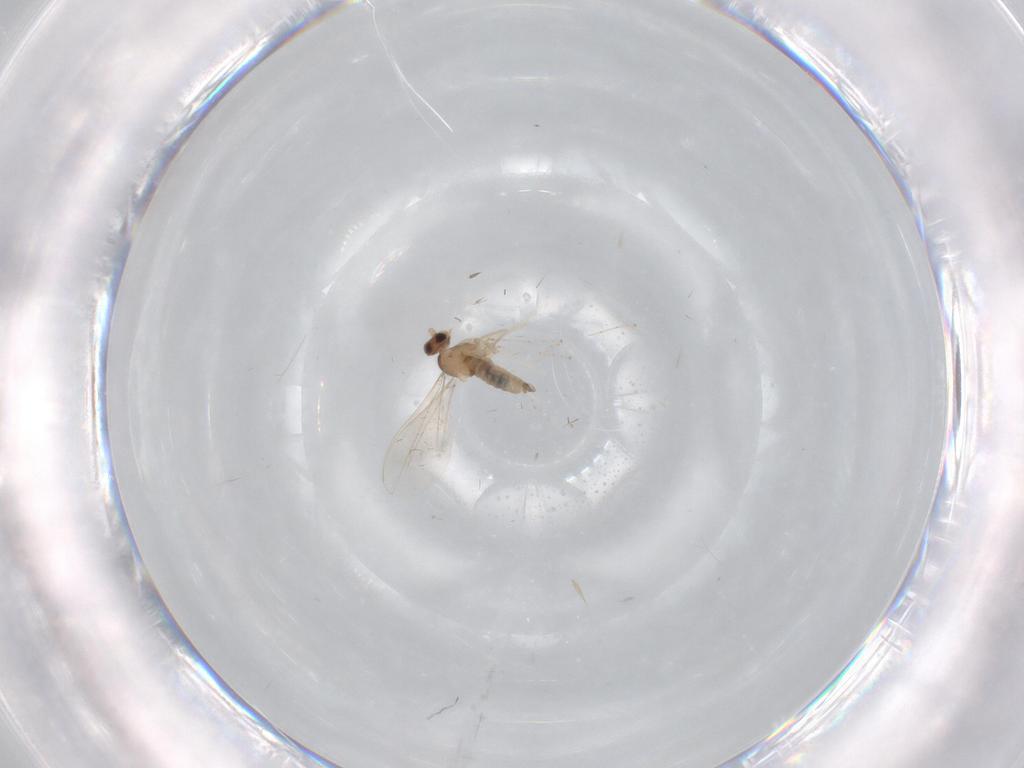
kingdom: Animalia
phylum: Arthropoda
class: Insecta
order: Diptera
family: Cecidomyiidae
